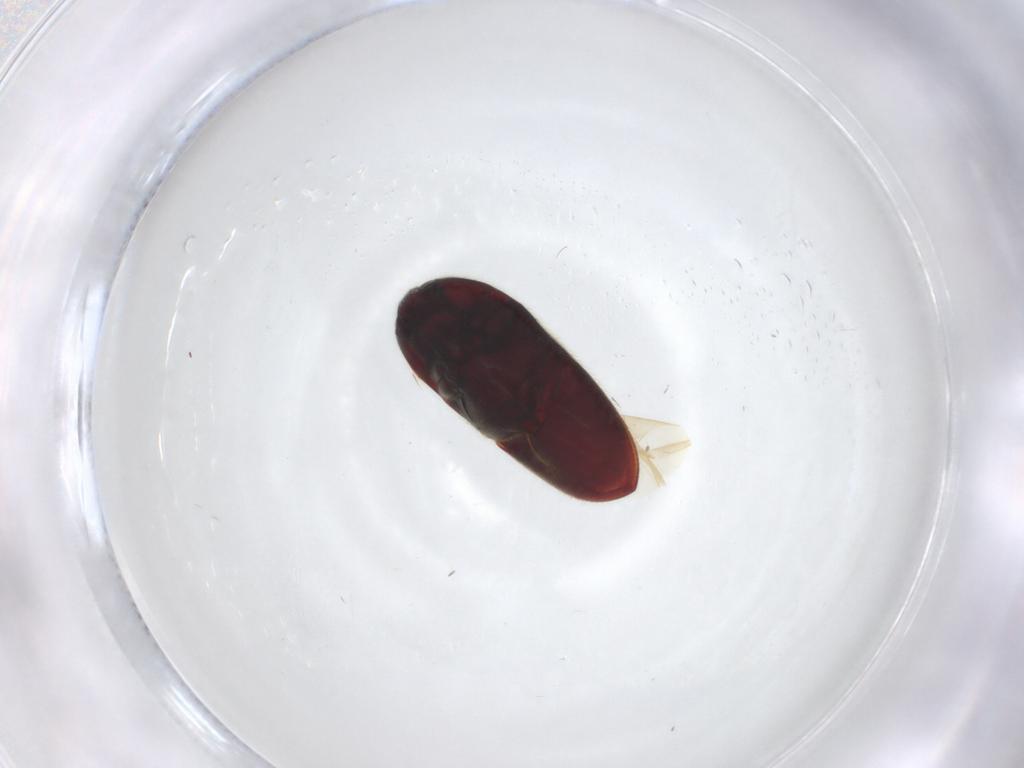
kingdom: Animalia
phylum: Arthropoda
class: Insecta
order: Coleoptera
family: Throscidae
